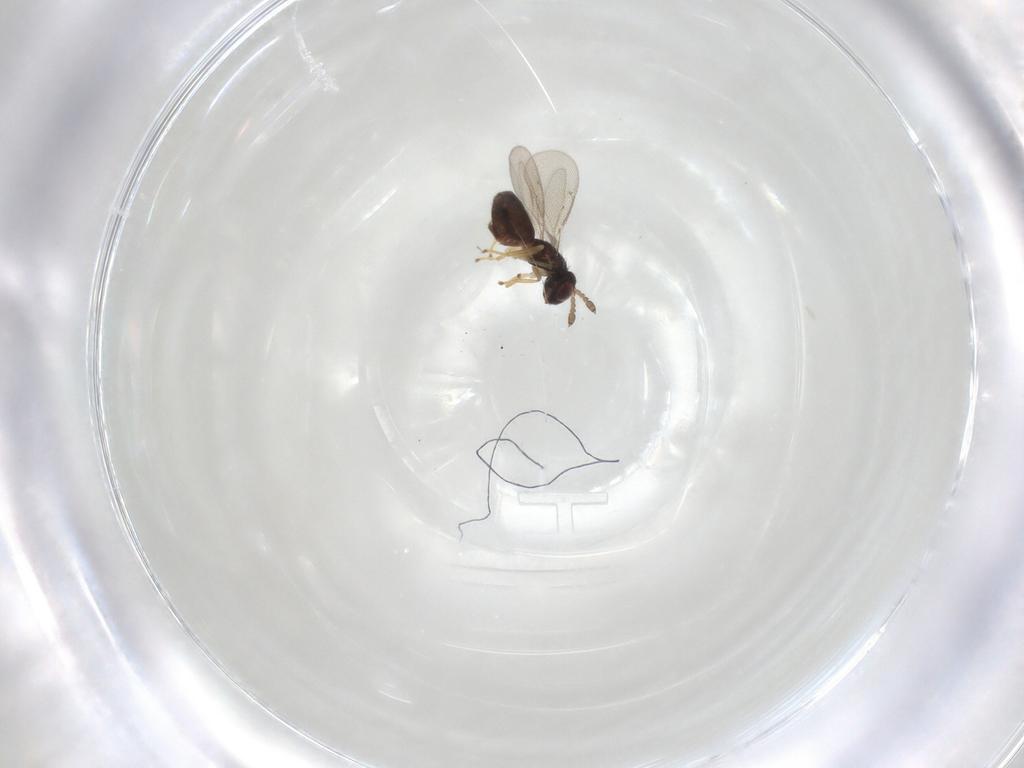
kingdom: Animalia
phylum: Arthropoda
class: Insecta
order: Hymenoptera
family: Eulophidae
